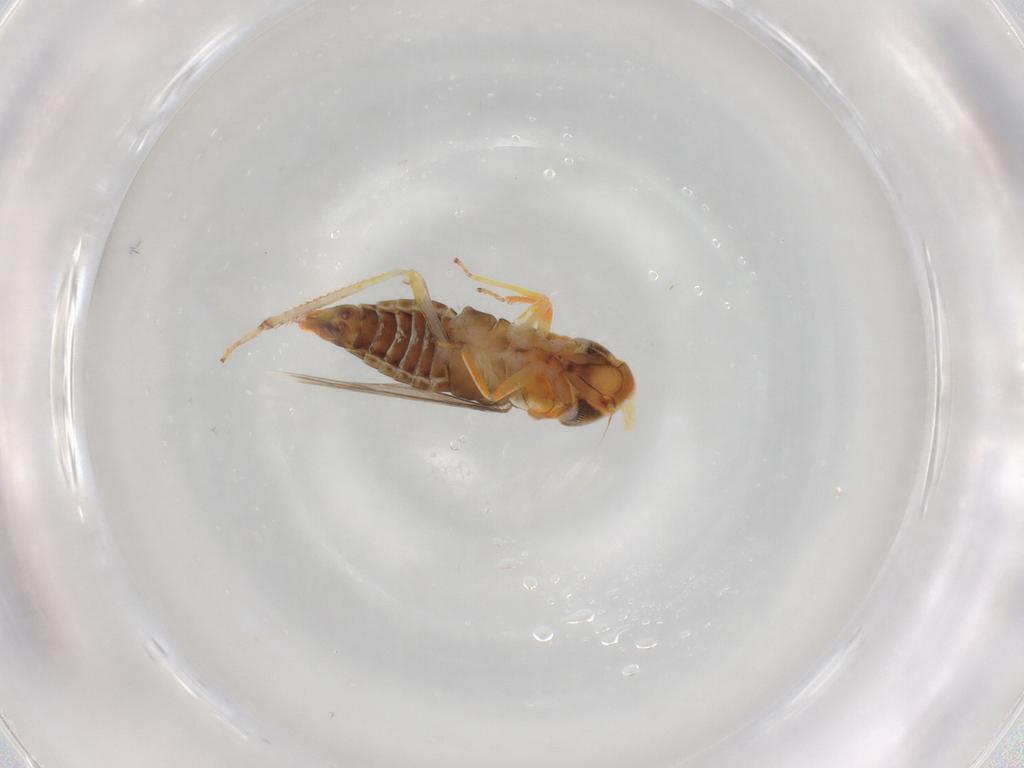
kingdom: Animalia
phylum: Arthropoda
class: Insecta
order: Hemiptera
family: Cicadellidae
